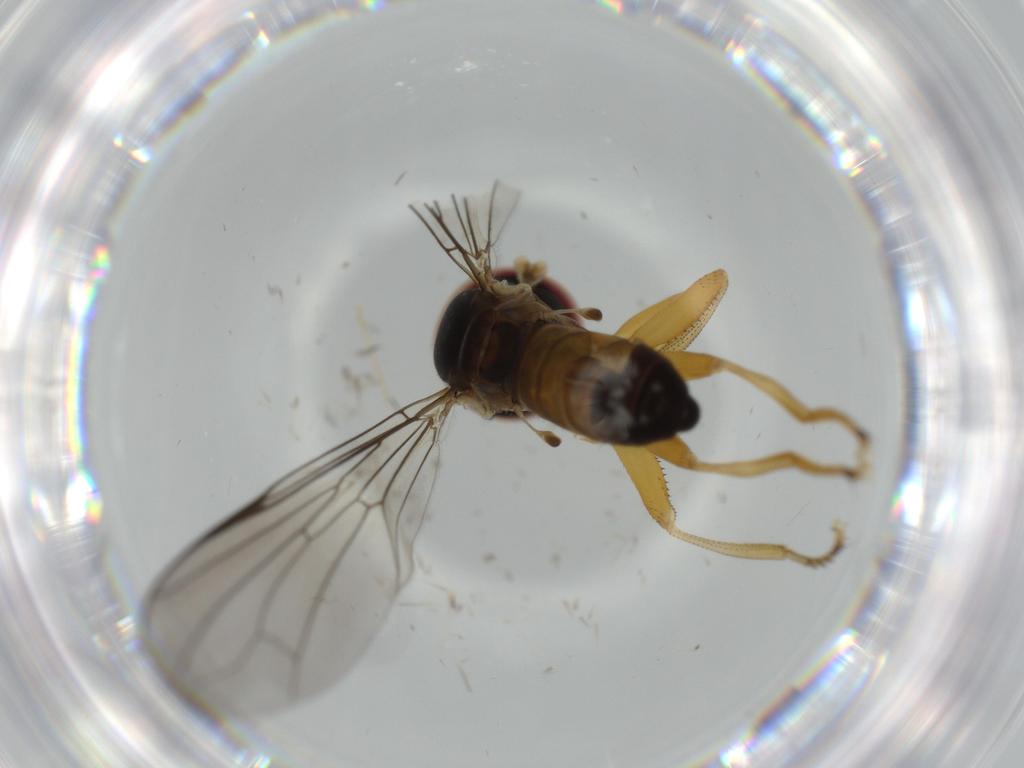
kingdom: Animalia
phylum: Arthropoda
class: Insecta
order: Diptera
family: Pipunculidae
